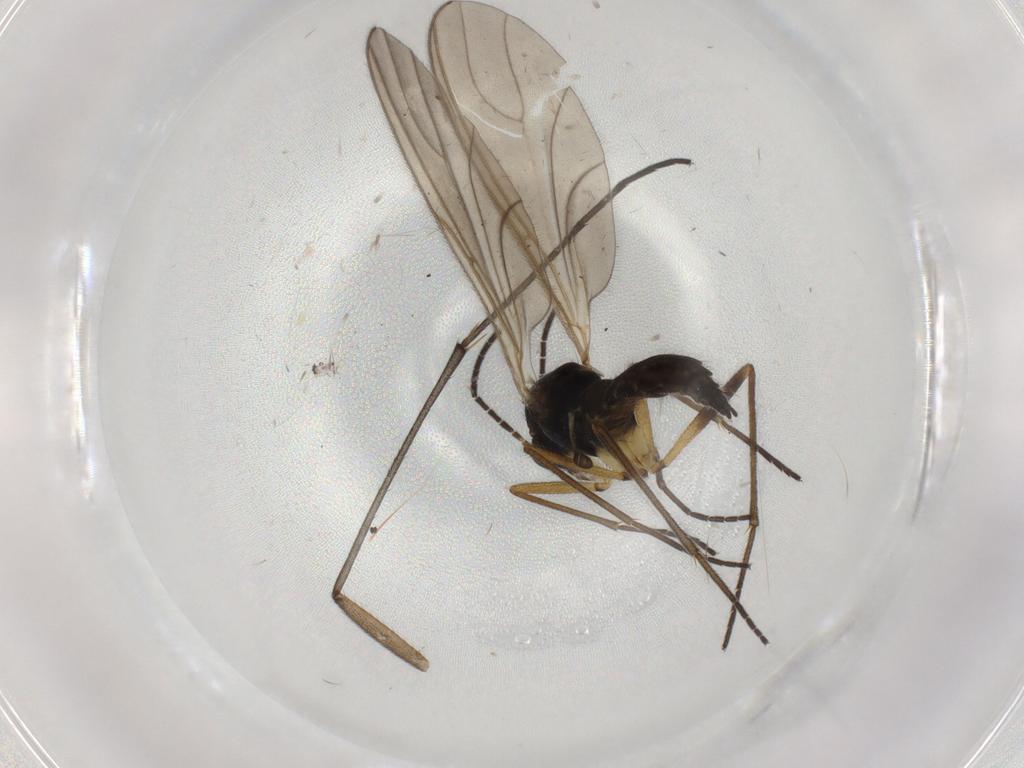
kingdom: Animalia
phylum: Arthropoda
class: Insecta
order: Diptera
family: Sciaridae
